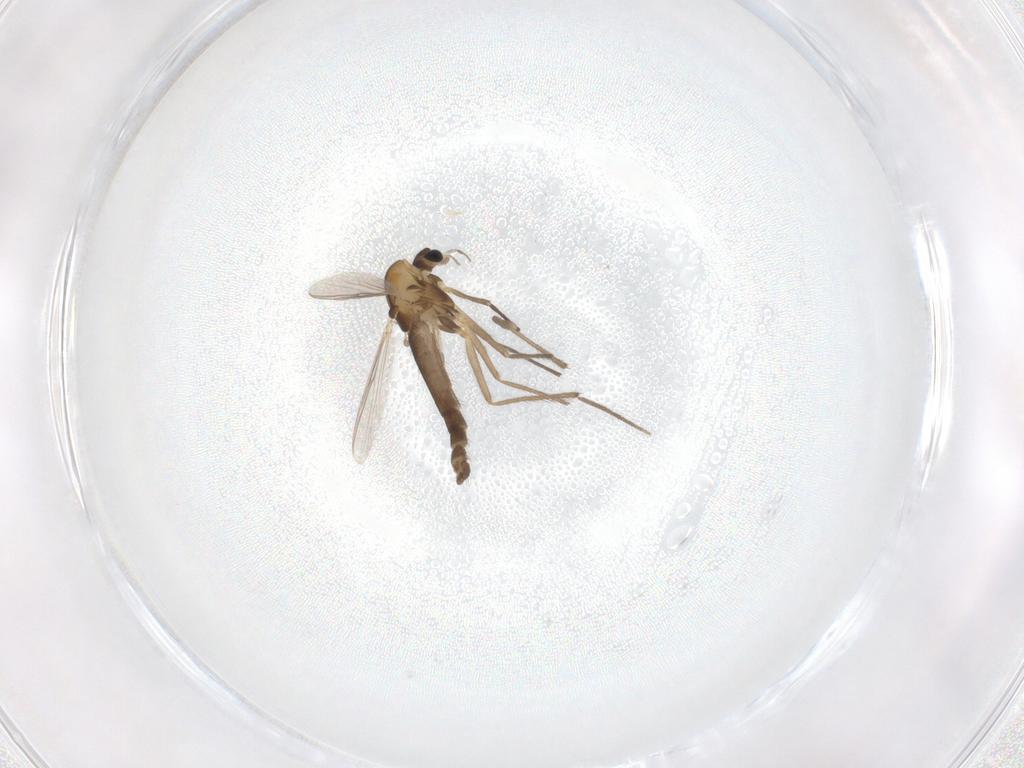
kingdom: Animalia
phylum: Arthropoda
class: Insecta
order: Diptera
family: Chironomidae
